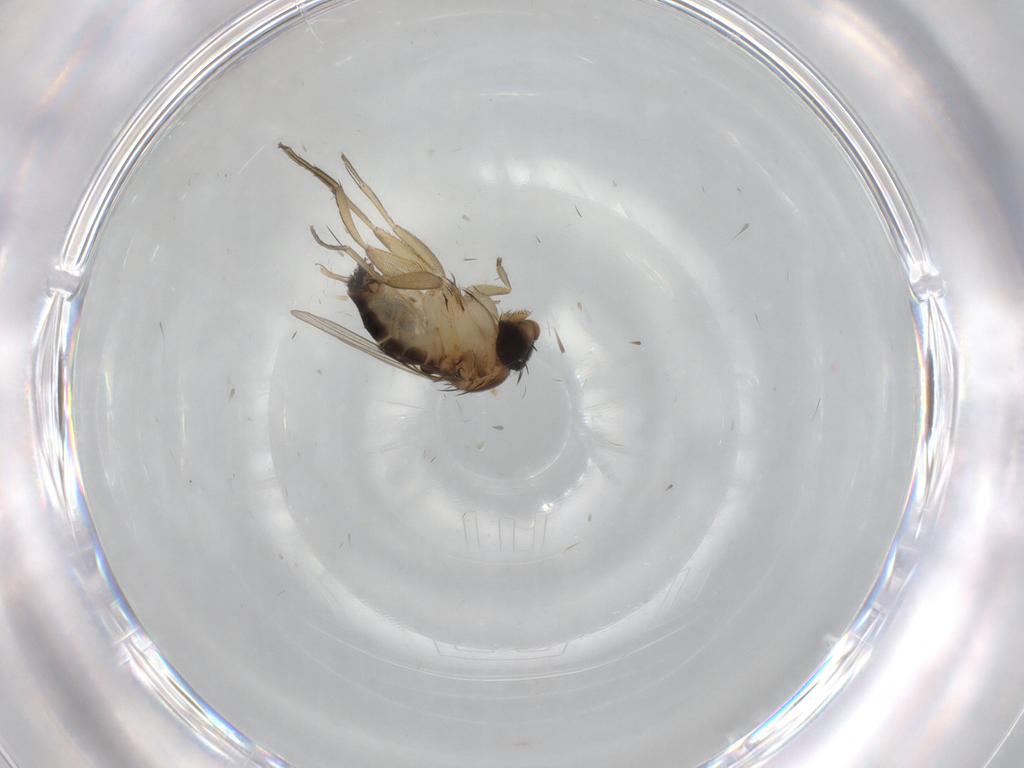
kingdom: Animalia
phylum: Arthropoda
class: Insecta
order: Diptera
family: Phoridae
